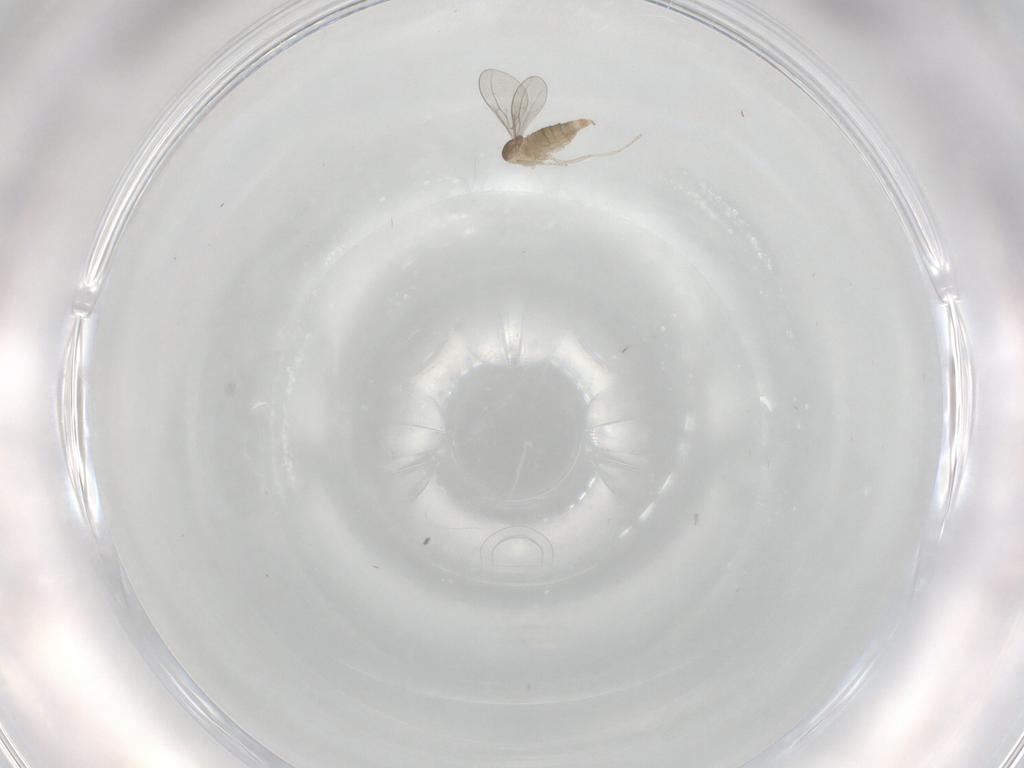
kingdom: Animalia
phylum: Arthropoda
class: Insecta
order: Diptera
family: Cecidomyiidae
